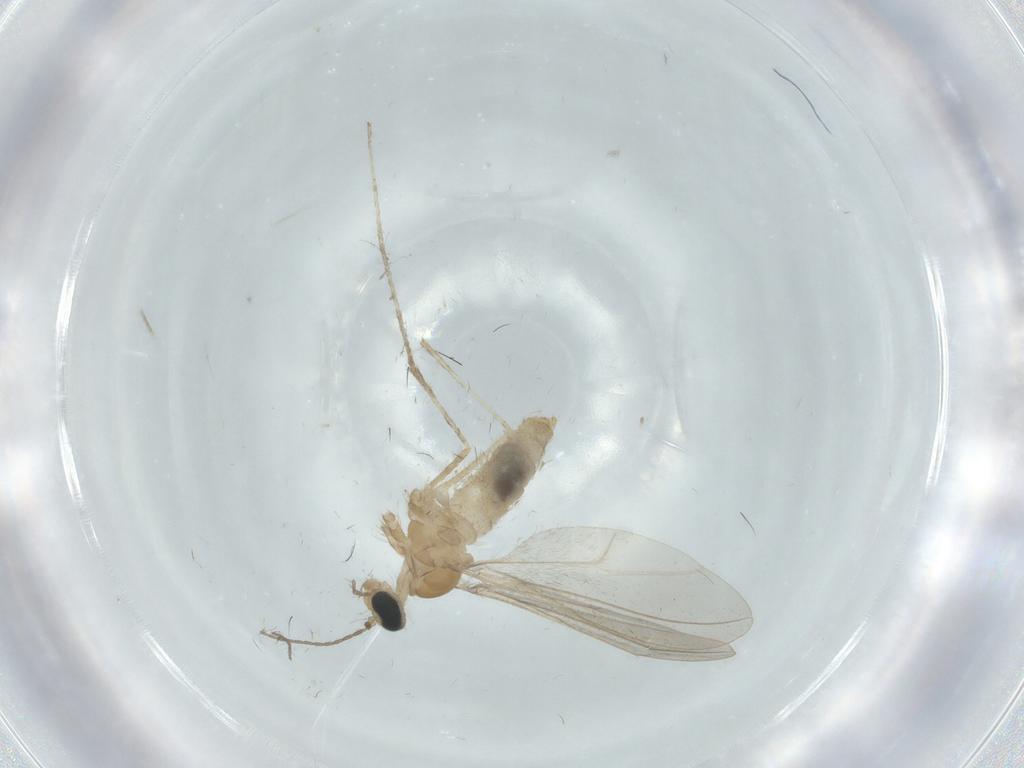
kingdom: Animalia
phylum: Arthropoda
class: Insecta
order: Diptera
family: Cecidomyiidae
